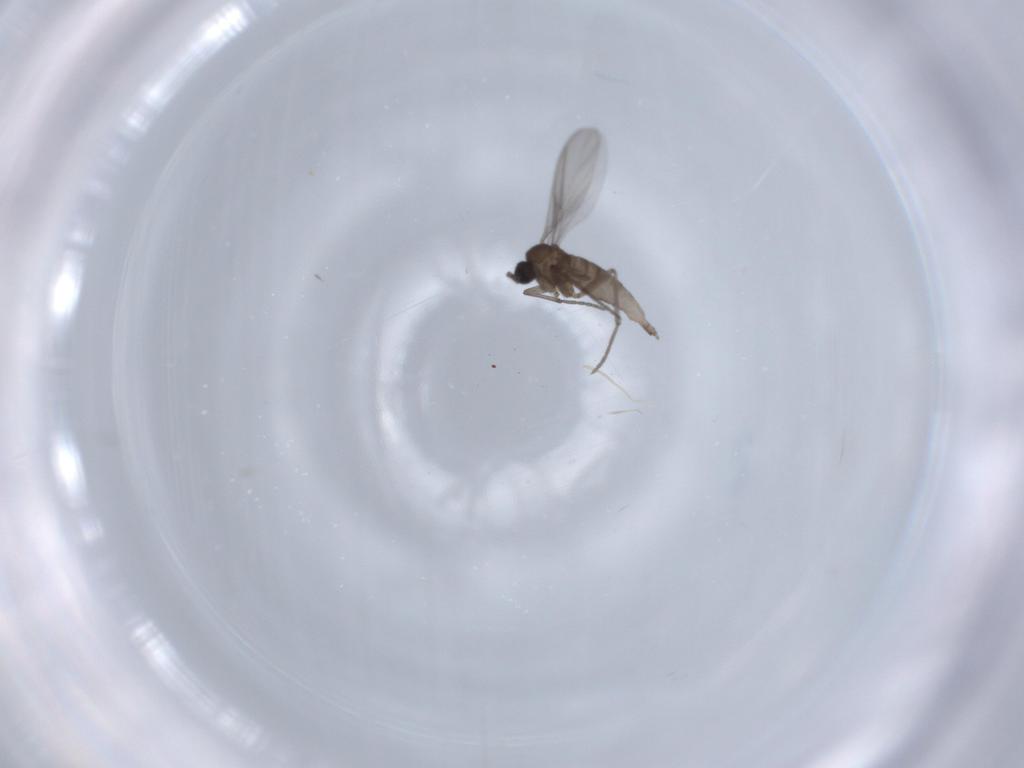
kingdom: Animalia
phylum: Arthropoda
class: Insecta
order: Diptera
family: Sciaridae
